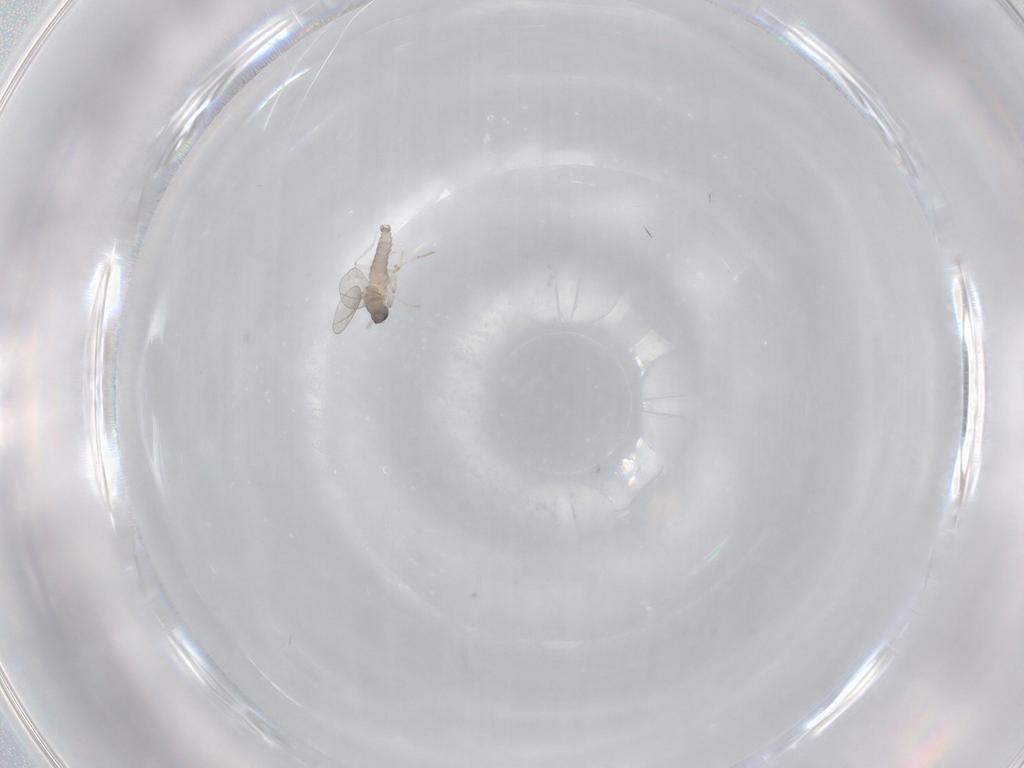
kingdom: Animalia
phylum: Arthropoda
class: Insecta
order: Diptera
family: Cecidomyiidae
